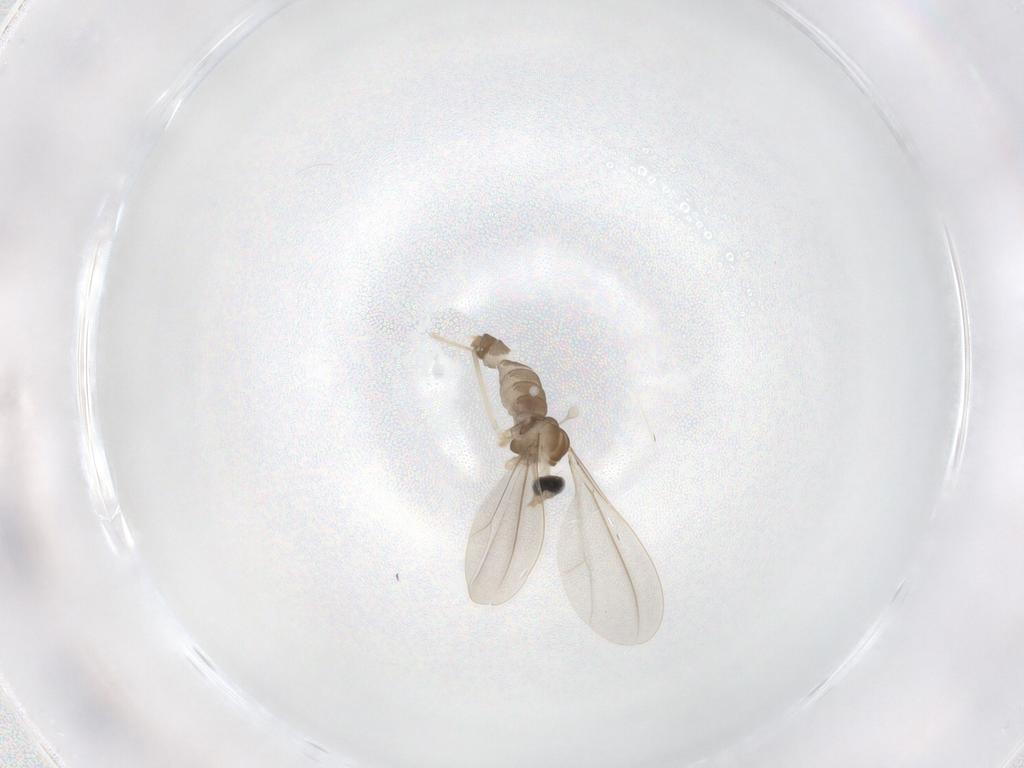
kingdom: Animalia
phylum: Arthropoda
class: Insecta
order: Diptera
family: Cecidomyiidae
